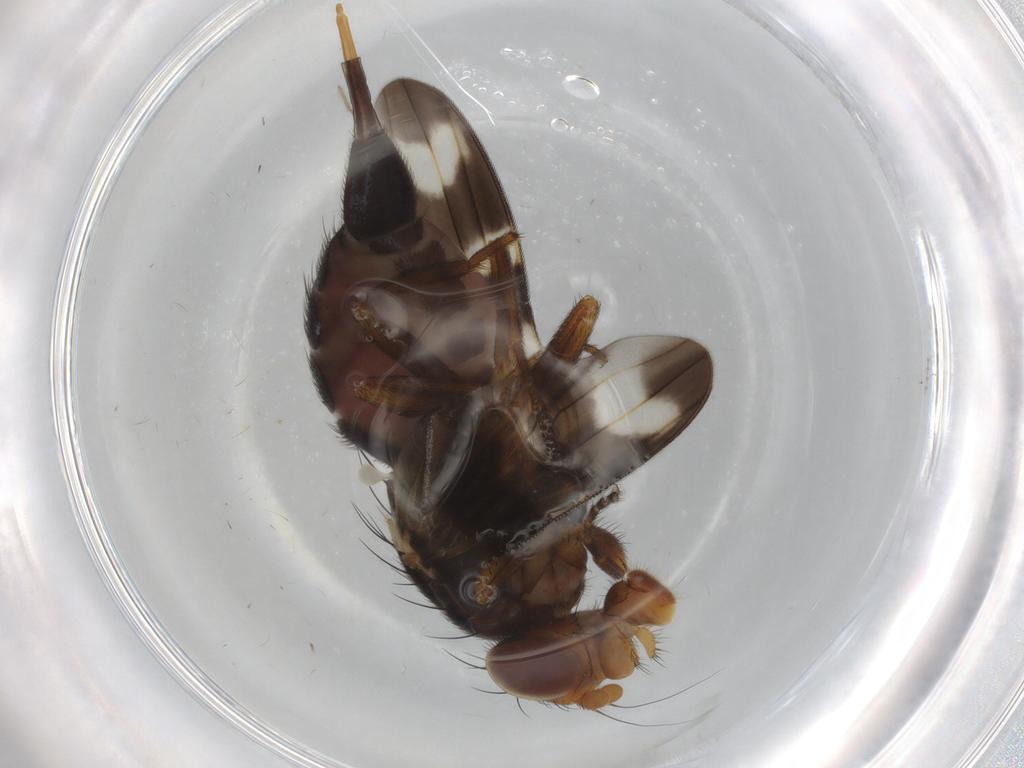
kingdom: Animalia
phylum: Arthropoda
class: Insecta
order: Diptera
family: Ulidiidae
